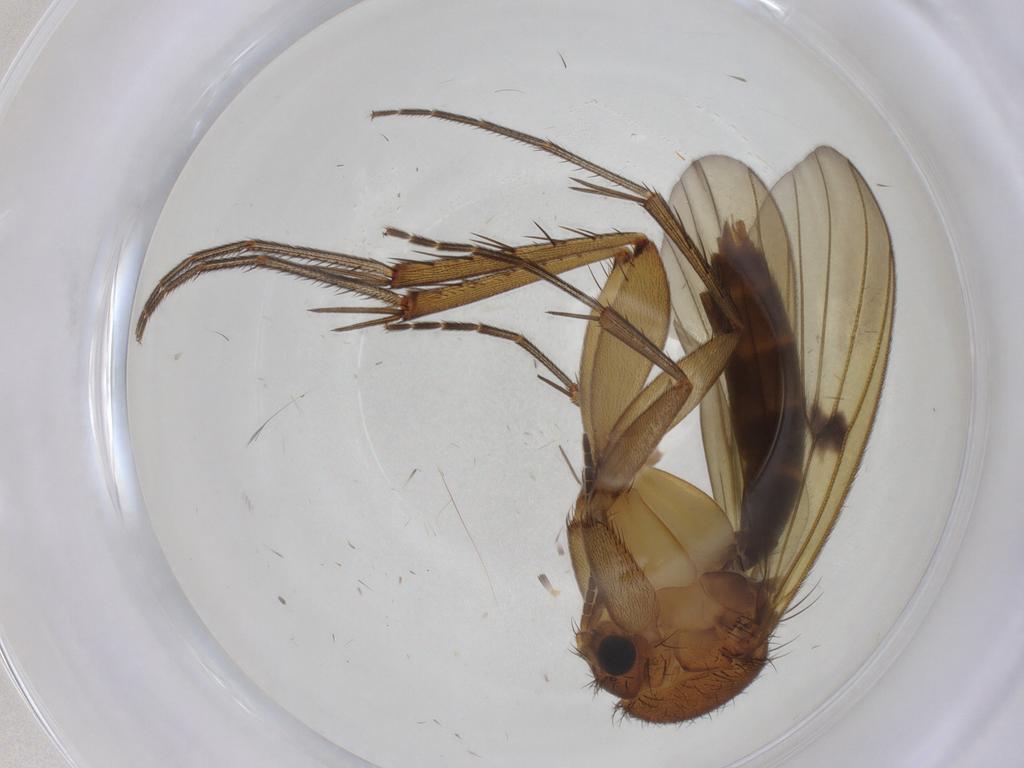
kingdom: Animalia
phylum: Arthropoda
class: Insecta
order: Diptera
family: Mycetophilidae
